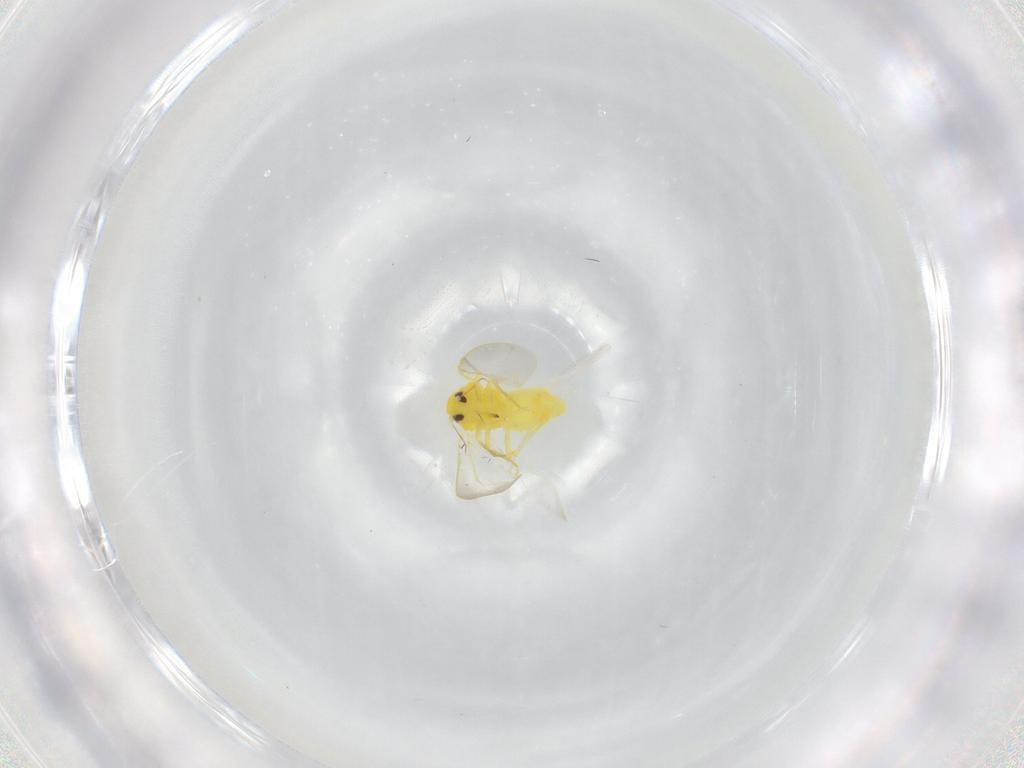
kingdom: Animalia
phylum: Arthropoda
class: Insecta
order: Hemiptera
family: Aleyrodidae
